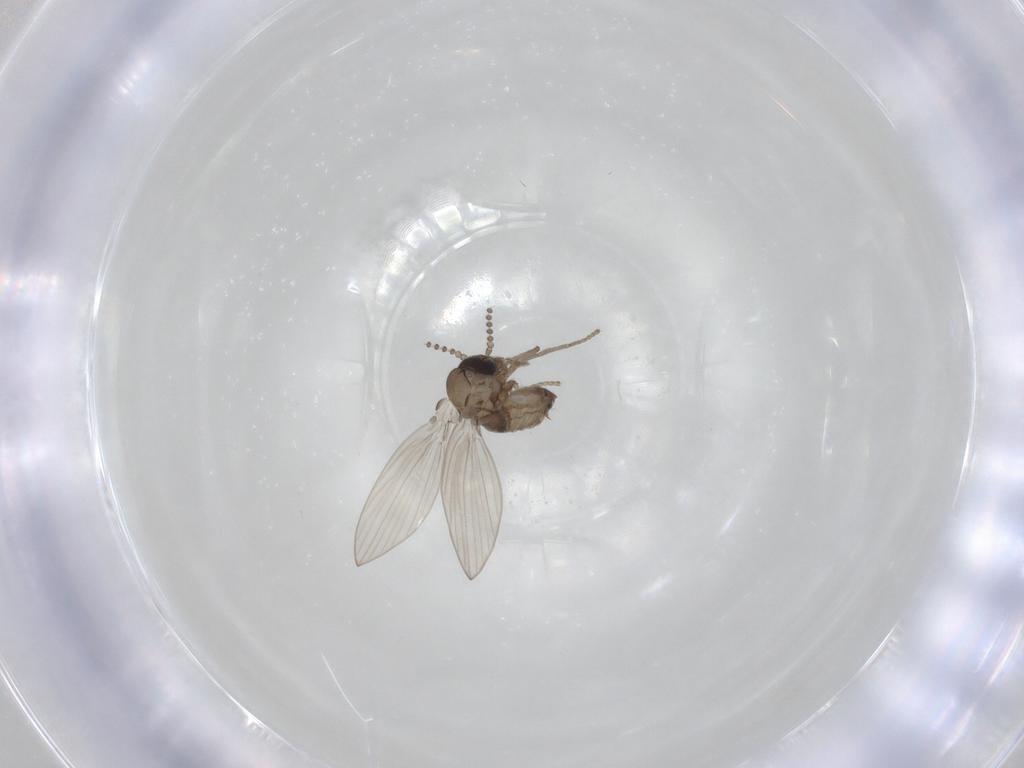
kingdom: Animalia
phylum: Arthropoda
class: Insecta
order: Diptera
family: Psychodidae
